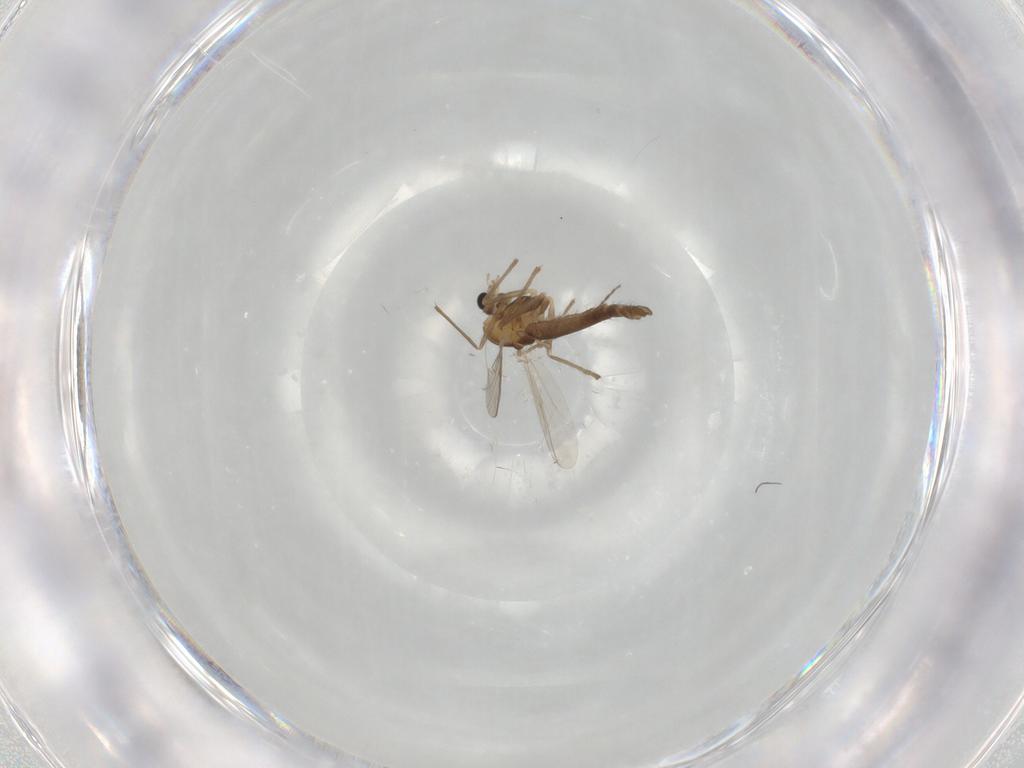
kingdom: Animalia
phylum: Arthropoda
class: Insecta
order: Diptera
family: Chironomidae
